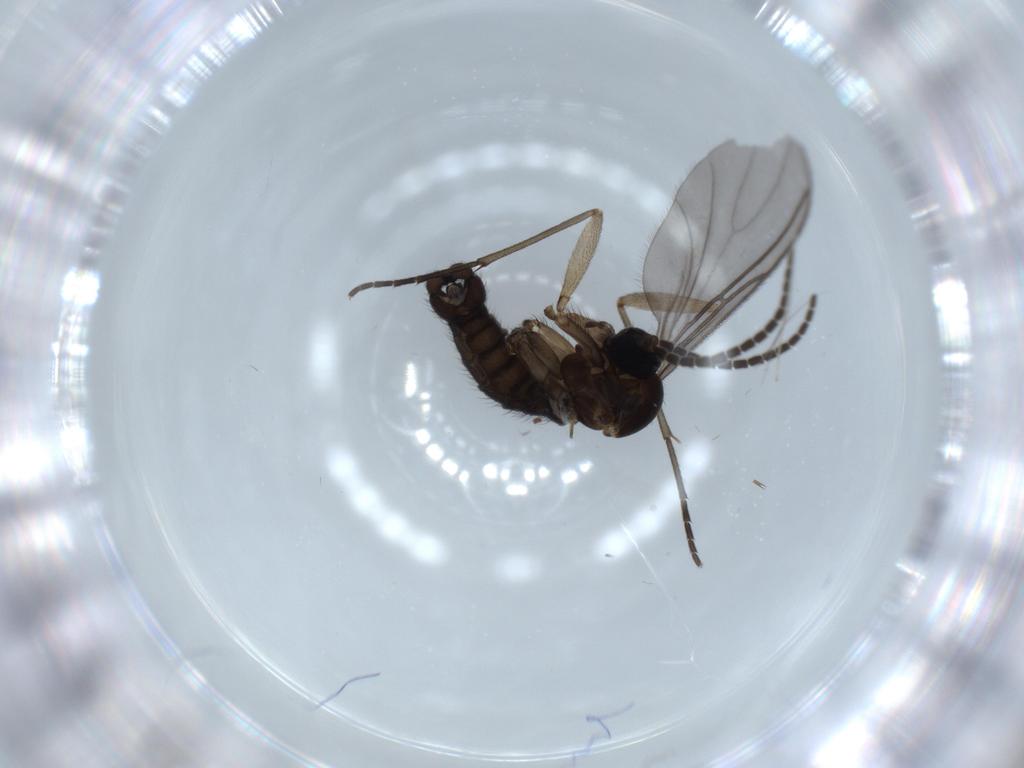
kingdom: Animalia
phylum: Arthropoda
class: Insecta
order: Diptera
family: Sciaridae
